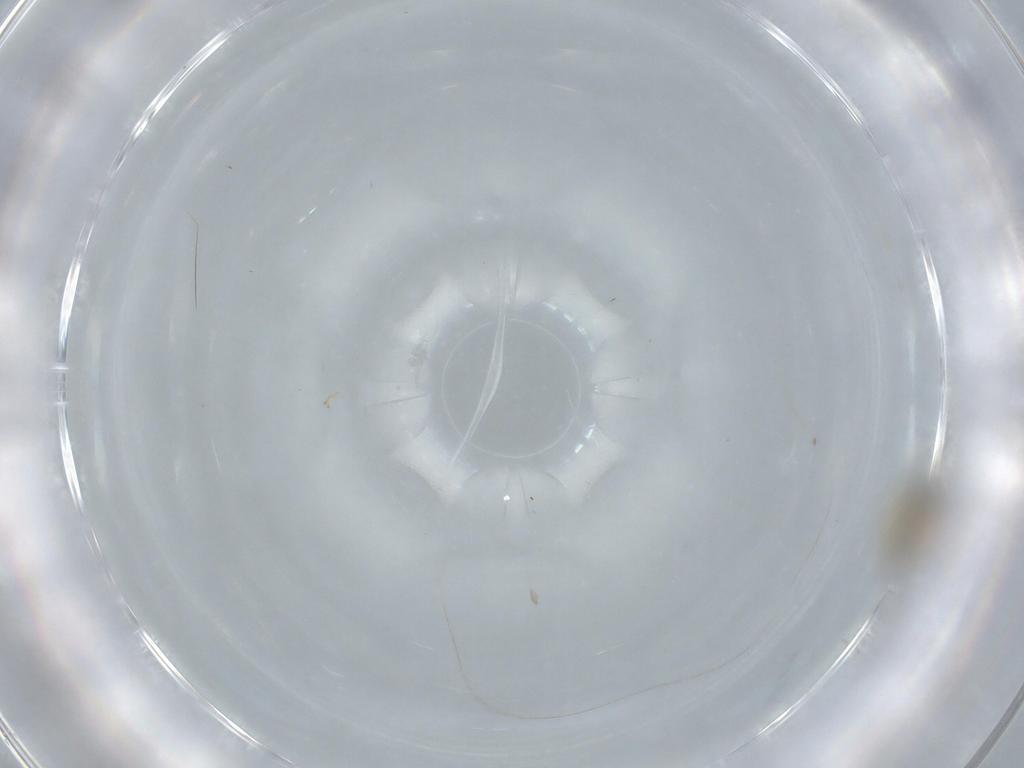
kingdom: Animalia
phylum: Arthropoda
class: Insecta
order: Diptera
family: Chironomidae
